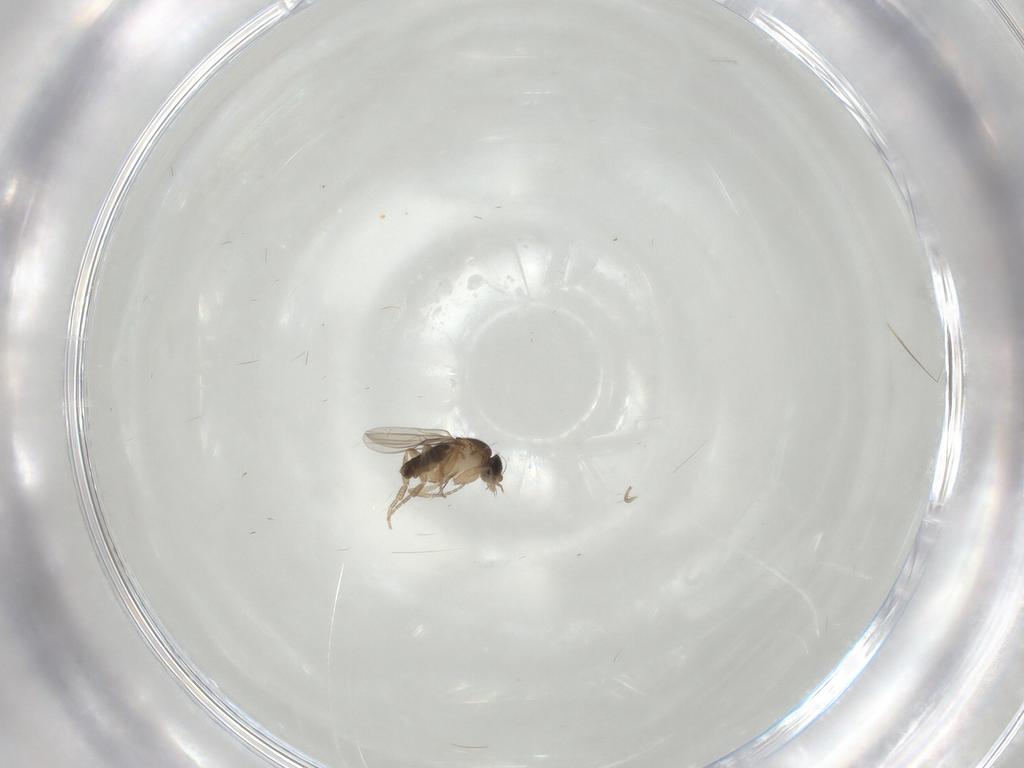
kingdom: Animalia
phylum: Arthropoda
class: Insecta
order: Diptera
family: Phoridae
